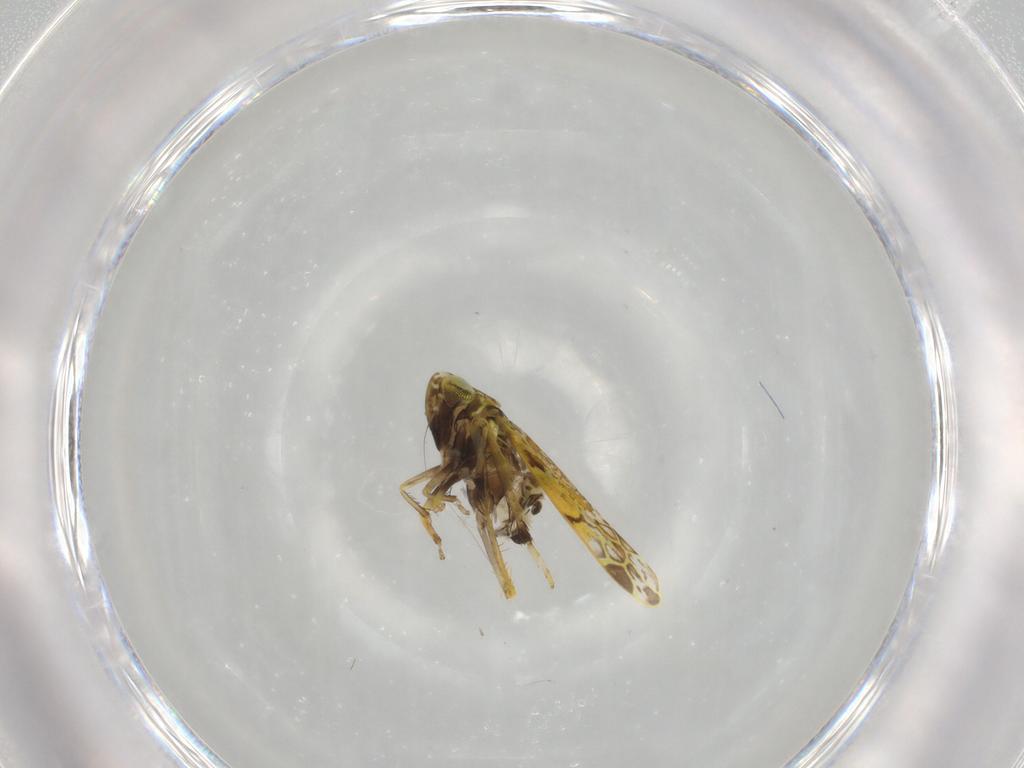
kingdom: Animalia
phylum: Arthropoda
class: Insecta
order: Hemiptera
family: Cicadellidae
